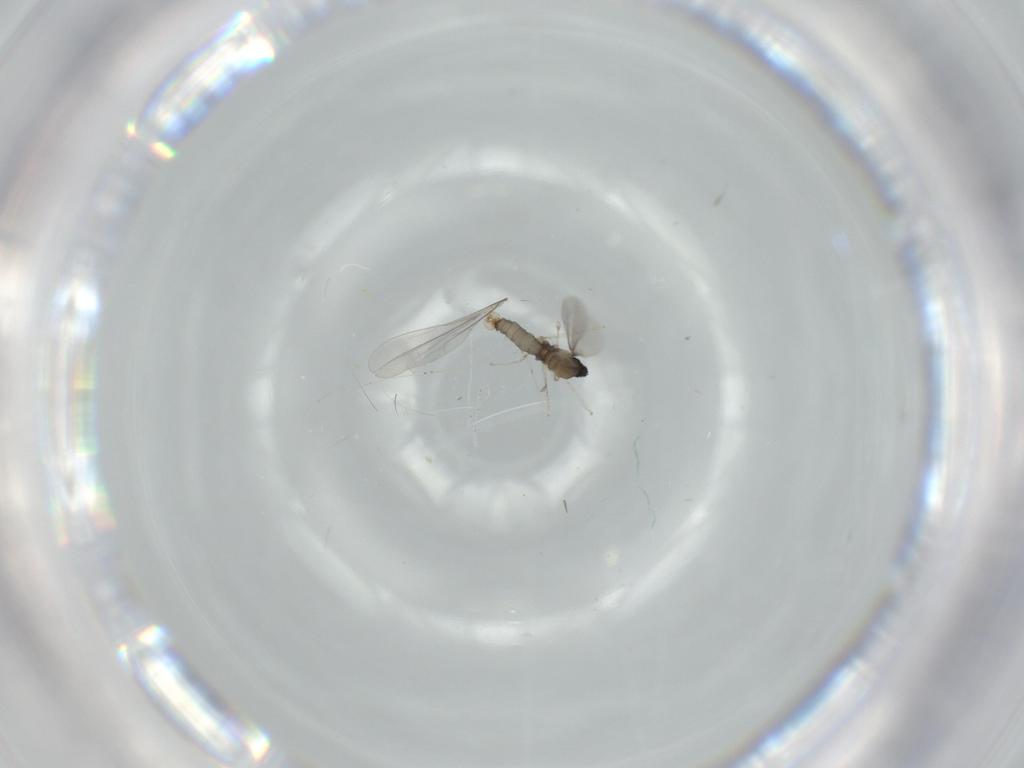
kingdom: Animalia
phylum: Arthropoda
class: Insecta
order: Diptera
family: Cecidomyiidae
